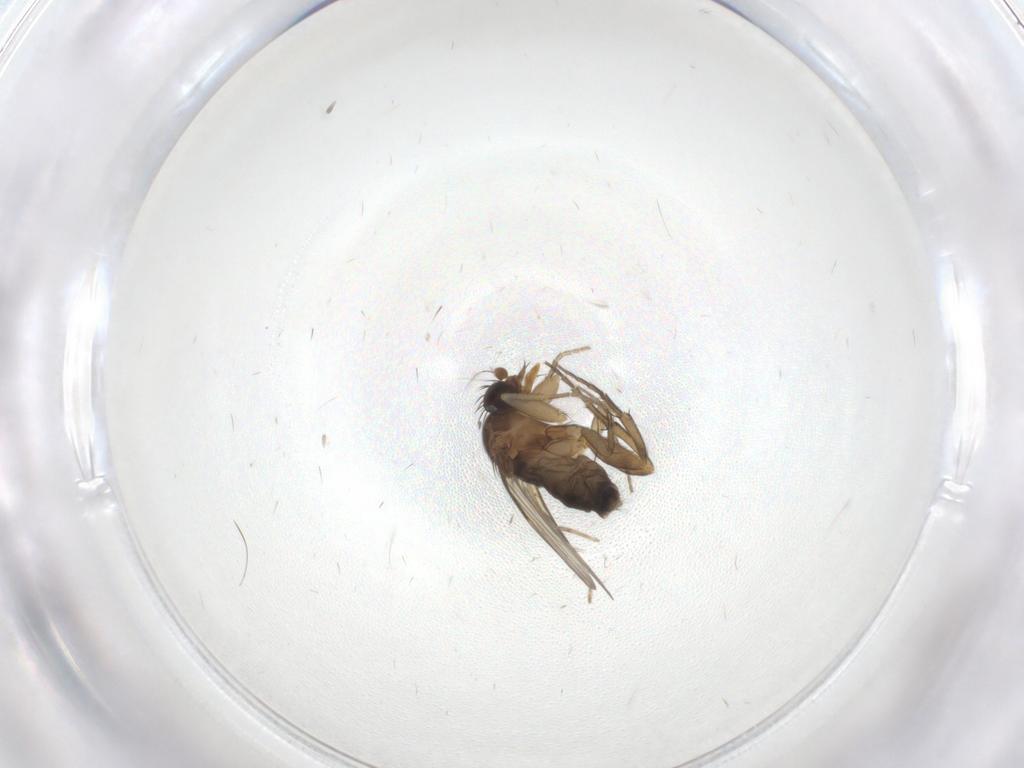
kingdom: Animalia
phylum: Arthropoda
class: Insecta
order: Diptera
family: Phoridae
